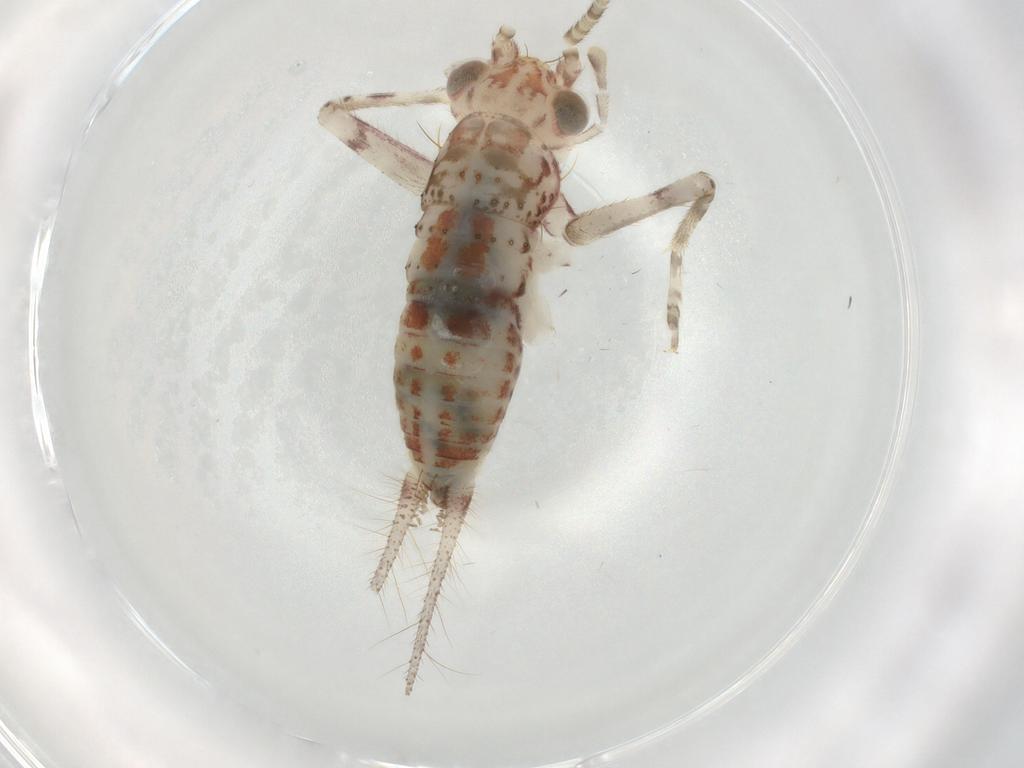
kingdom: Animalia
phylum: Arthropoda
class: Insecta
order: Orthoptera
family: Trigonidiidae
